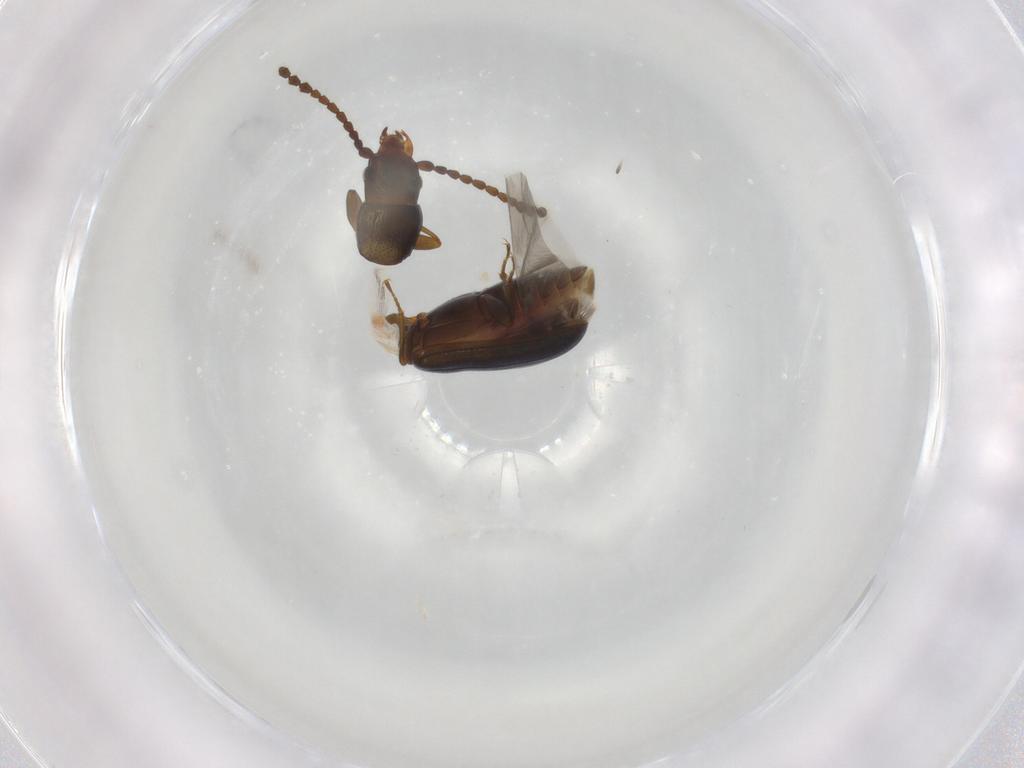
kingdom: Animalia
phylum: Arthropoda
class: Insecta
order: Coleoptera
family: Laemophloeidae
